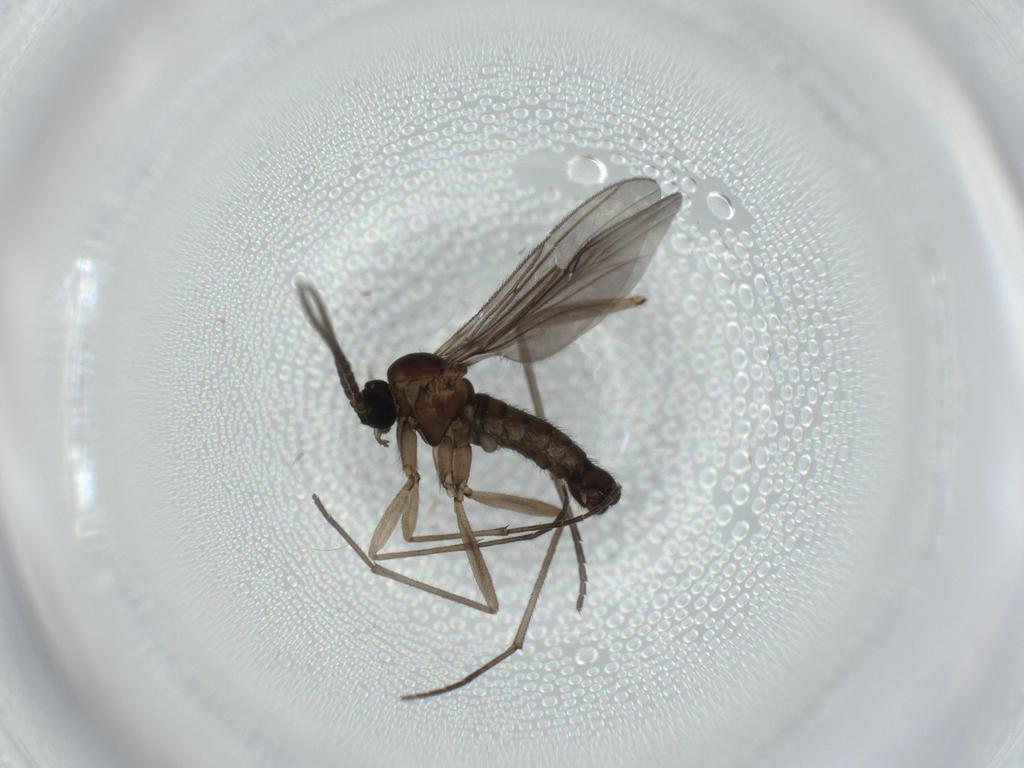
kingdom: Animalia
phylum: Arthropoda
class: Insecta
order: Diptera
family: Sciaridae
